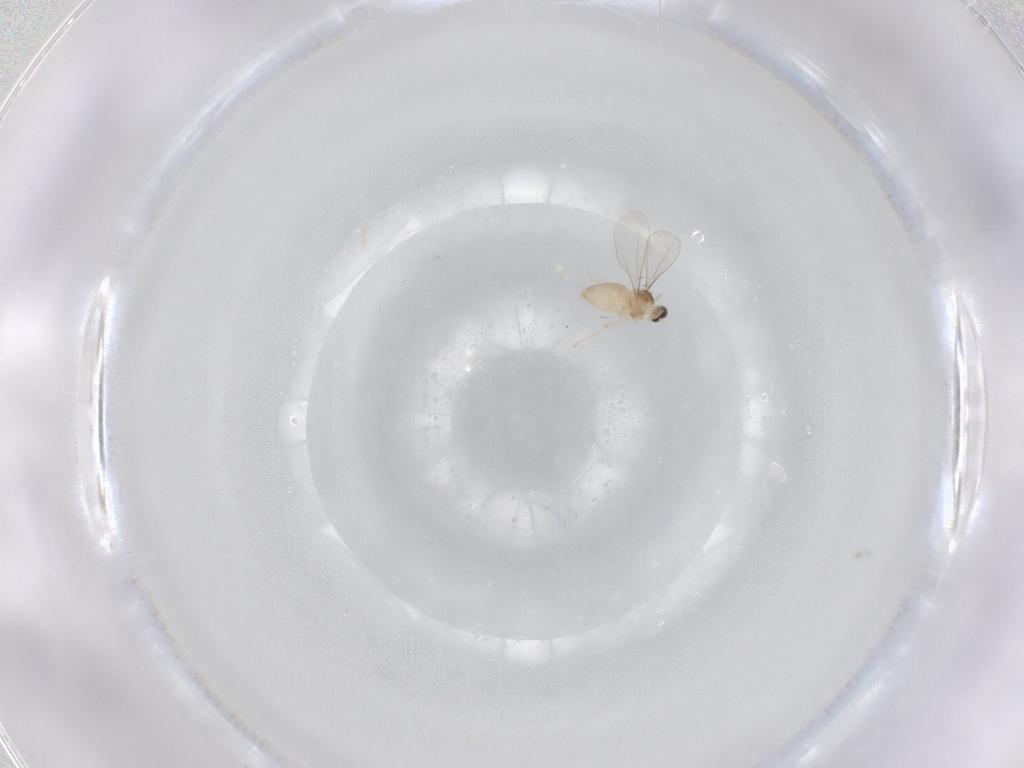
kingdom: Animalia
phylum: Arthropoda
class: Insecta
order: Diptera
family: Cecidomyiidae
